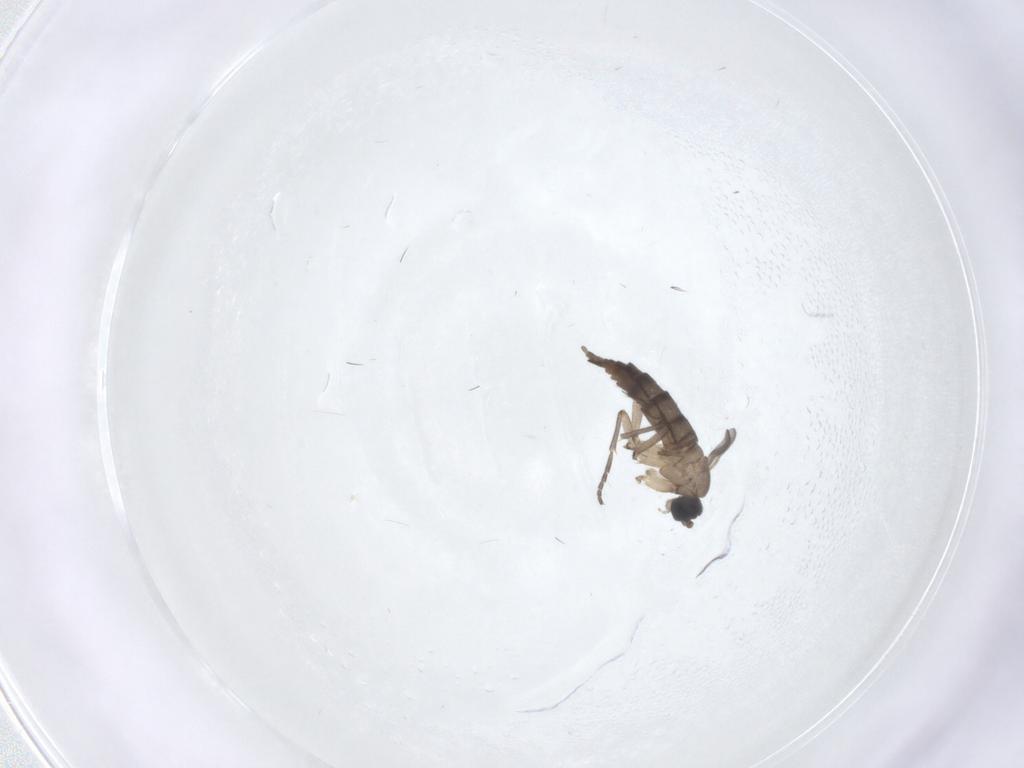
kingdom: Animalia
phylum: Arthropoda
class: Insecta
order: Diptera
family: Sciaridae
